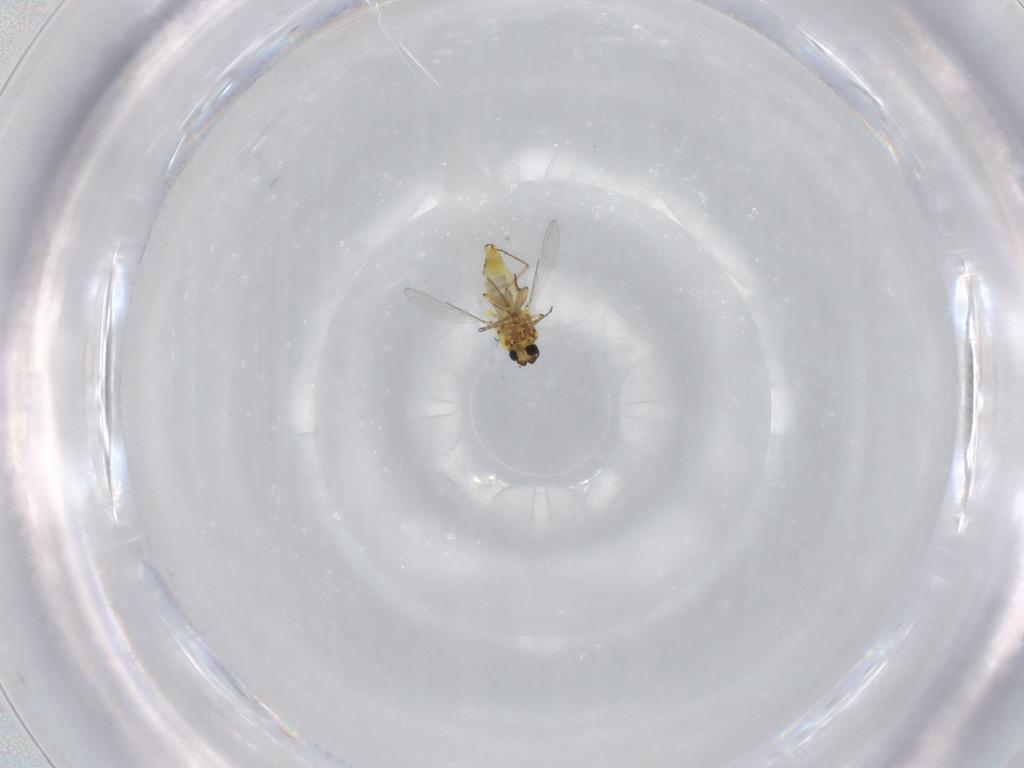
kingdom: Animalia
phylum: Arthropoda
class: Insecta
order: Diptera
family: Ceratopogonidae
